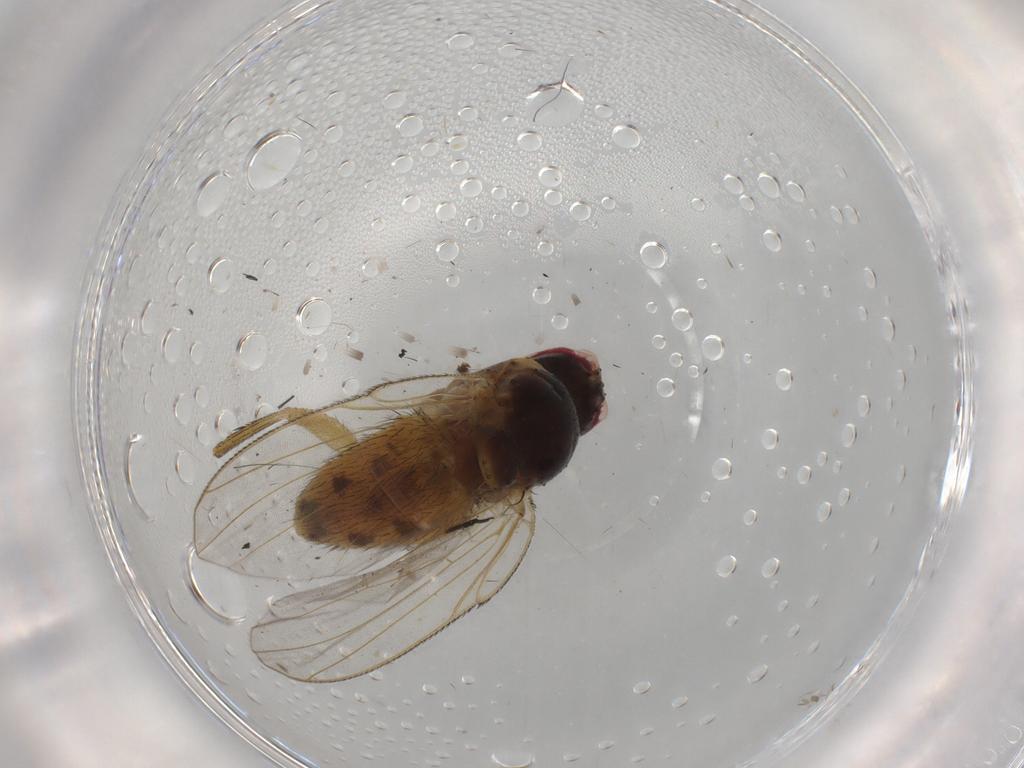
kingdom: Animalia
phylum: Arthropoda
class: Insecta
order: Diptera
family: Muscidae
